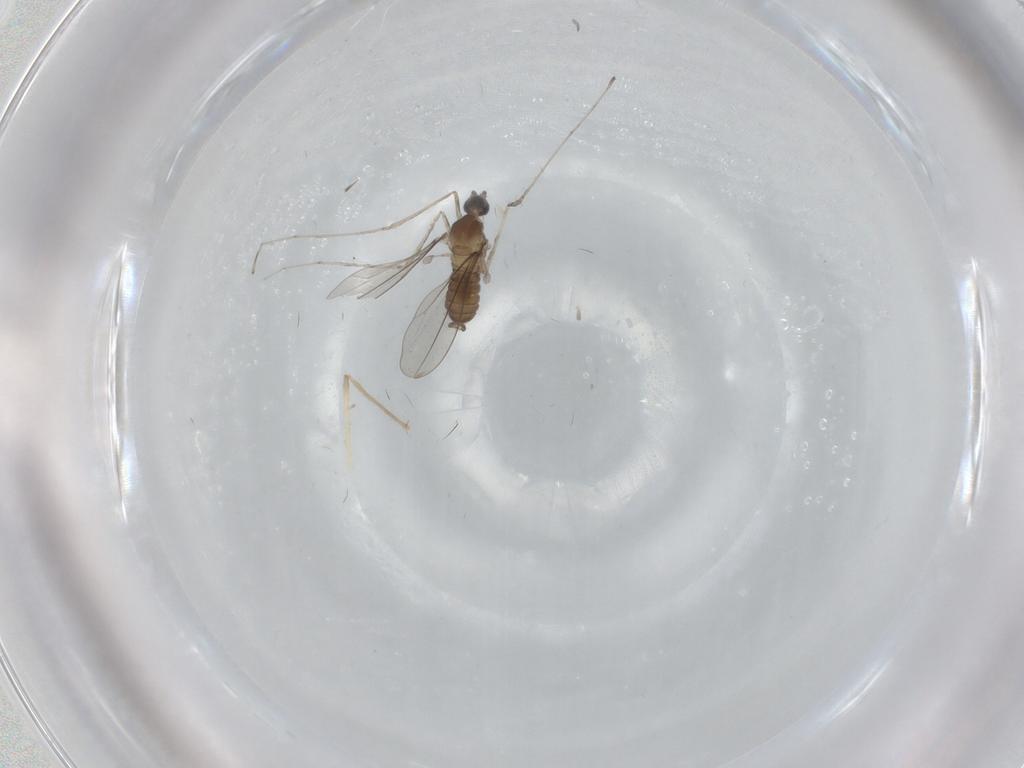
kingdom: Animalia
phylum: Arthropoda
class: Insecta
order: Diptera
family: Cecidomyiidae
